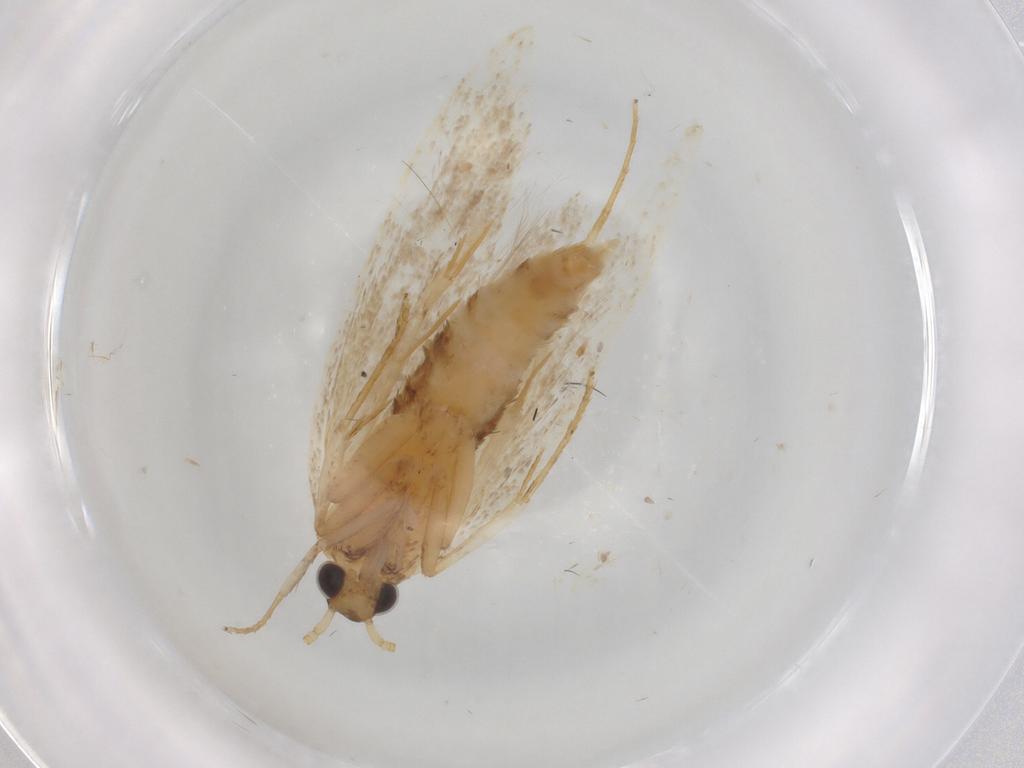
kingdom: Animalia
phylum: Arthropoda
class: Insecta
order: Lepidoptera
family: Lecithoceridae
